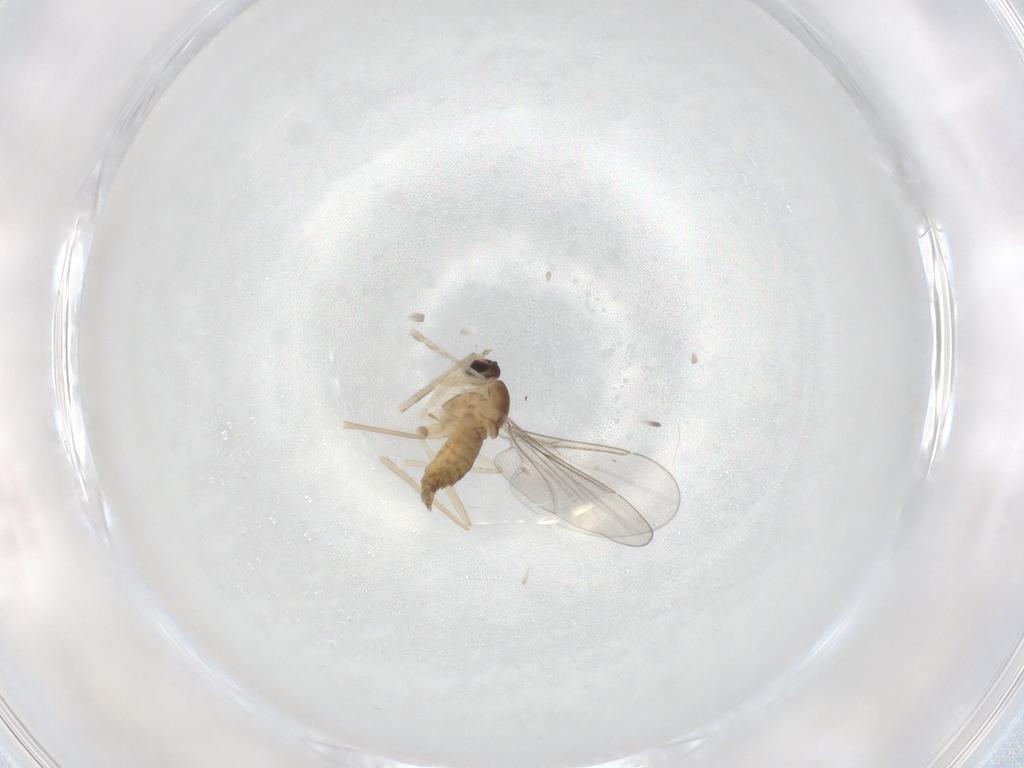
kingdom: Animalia
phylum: Arthropoda
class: Insecta
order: Diptera
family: Cecidomyiidae
